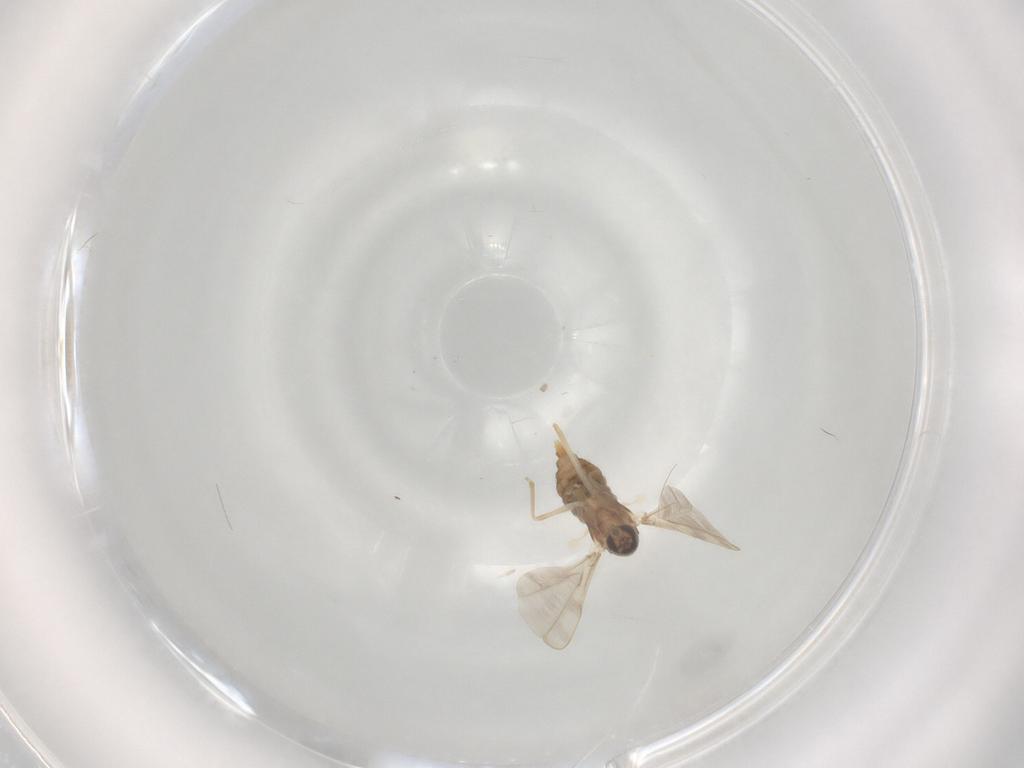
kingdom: Animalia
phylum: Arthropoda
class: Insecta
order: Diptera
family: Cecidomyiidae
